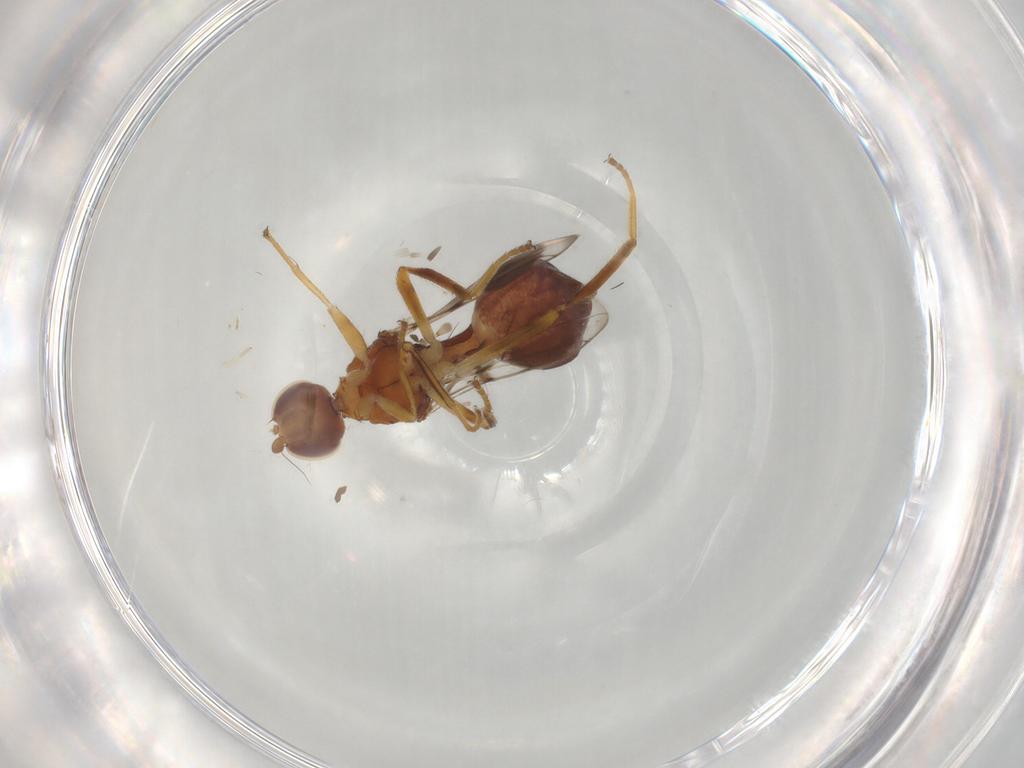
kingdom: Animalia
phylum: Arthropoda
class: Insecta
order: Diptera
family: Chloropidae
